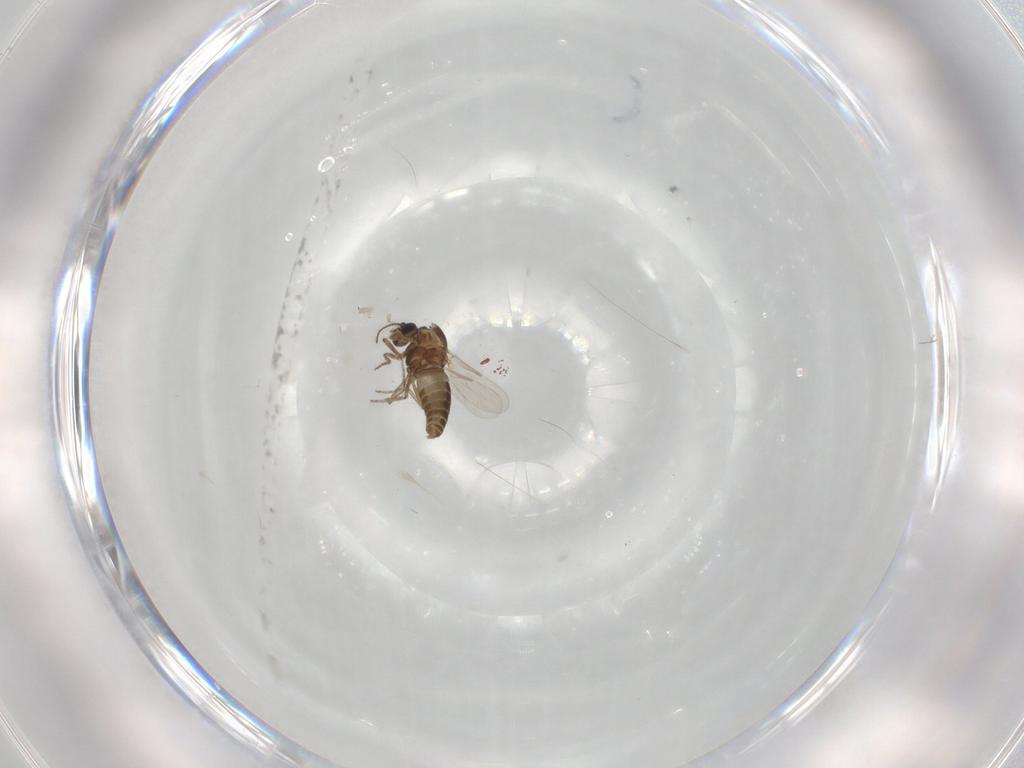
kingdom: Animalia
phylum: Arthropoda
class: Insecta
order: Diptera
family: Ceratopogonidae
